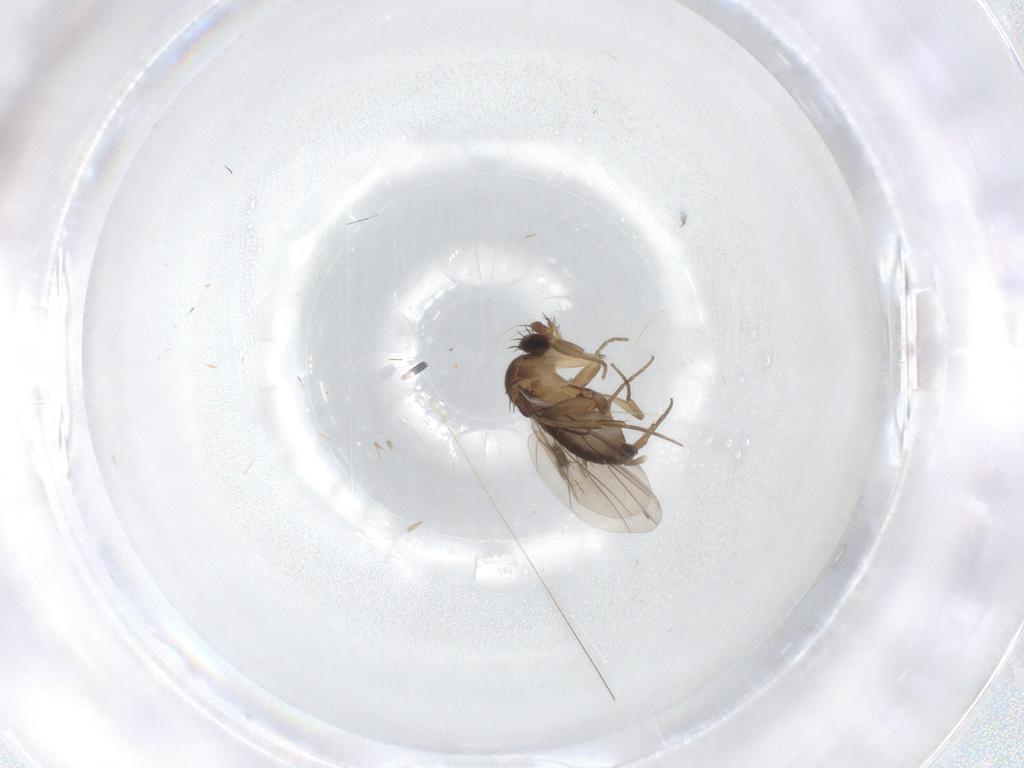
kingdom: Animalia
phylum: Arthropoda
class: Insecta
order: Diptera
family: Phoridae
